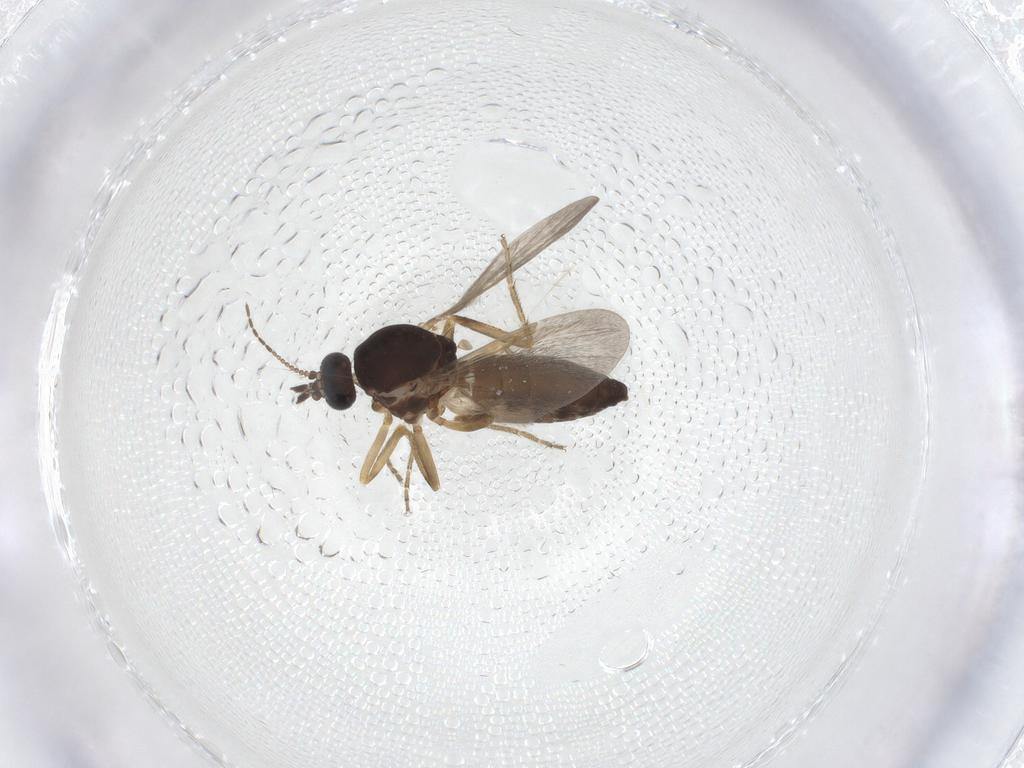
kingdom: Animalia
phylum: Arthropoda
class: Insecta
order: Diptera
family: Ceratopogonidae
